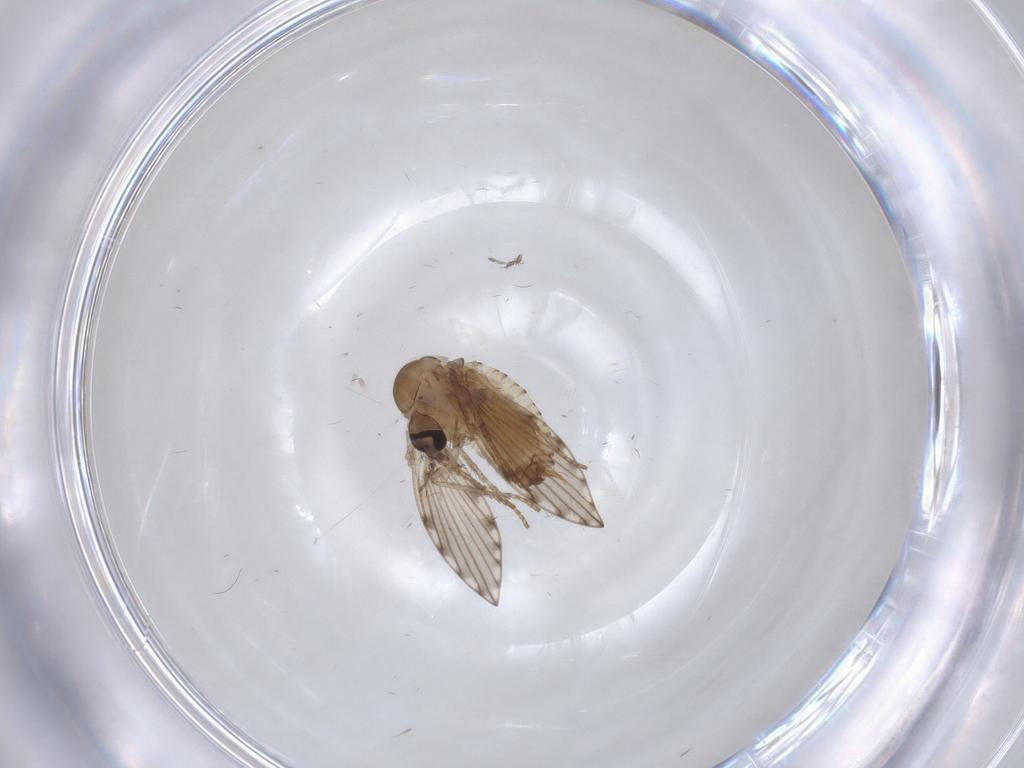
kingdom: Animalia
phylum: Arthropoda
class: Insecta
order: Diptera
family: Psychodidae
